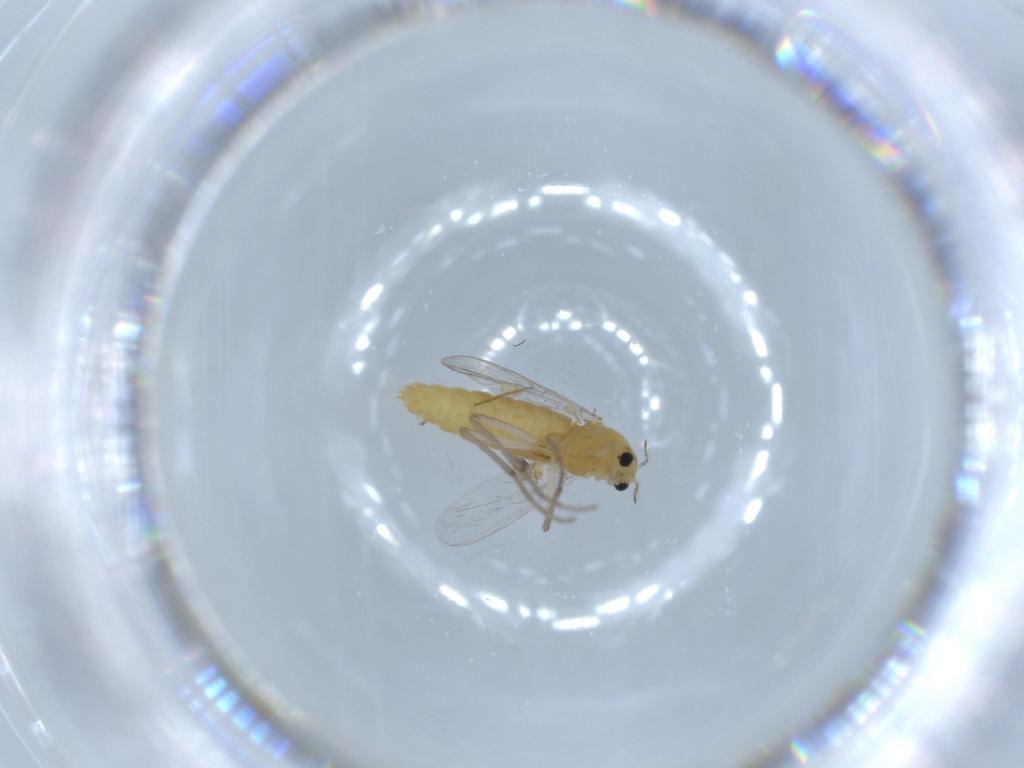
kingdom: Animalia
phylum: Arthropoda
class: Insecta
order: Diptera
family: Chironomidae
